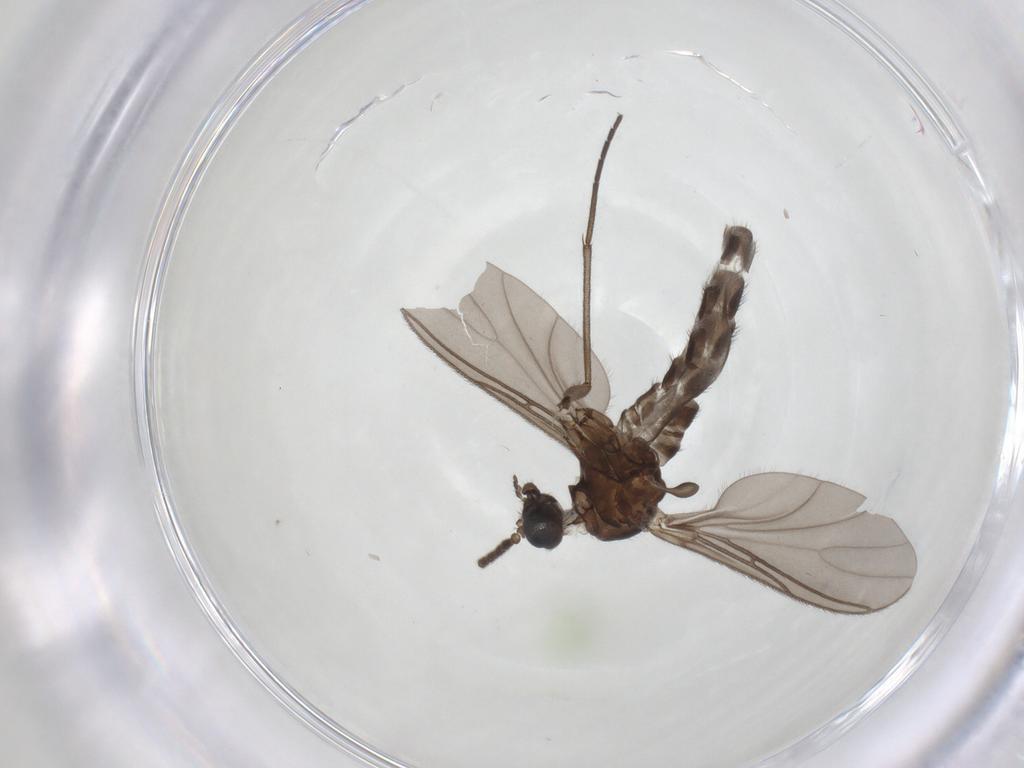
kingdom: Animalia
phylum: Arthropoda
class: Insecta
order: Diptera
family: Sciaridae
